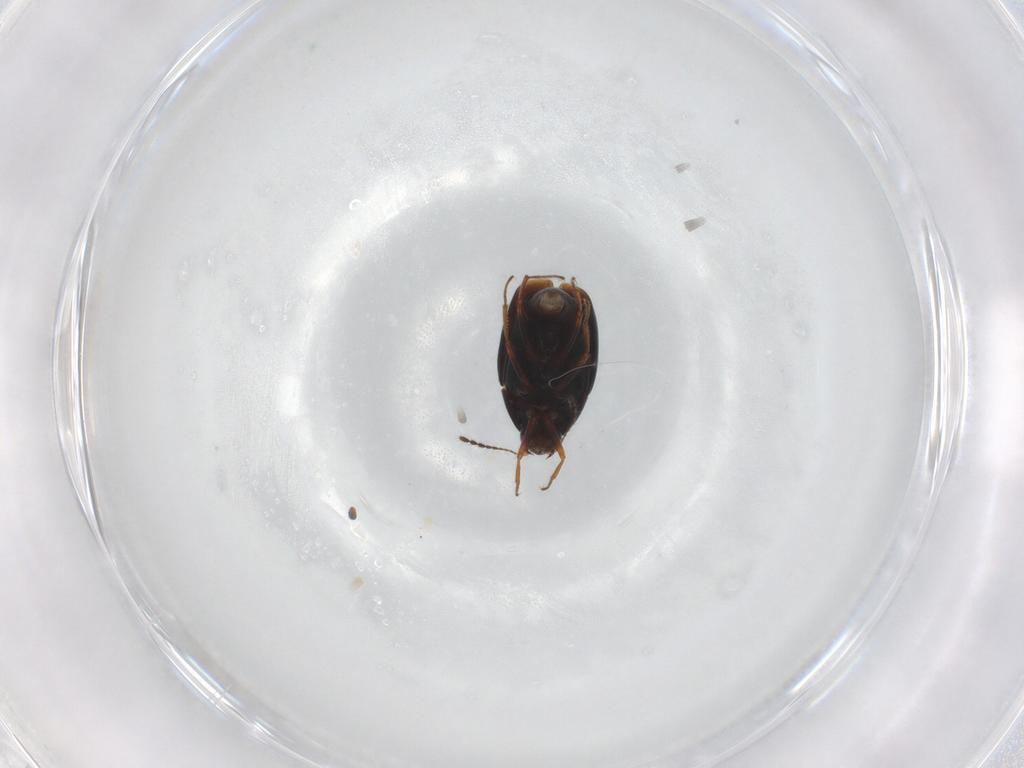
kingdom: Animalia
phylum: Arthropoda
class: Insecta
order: Coleoptera
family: Staphylinidae
